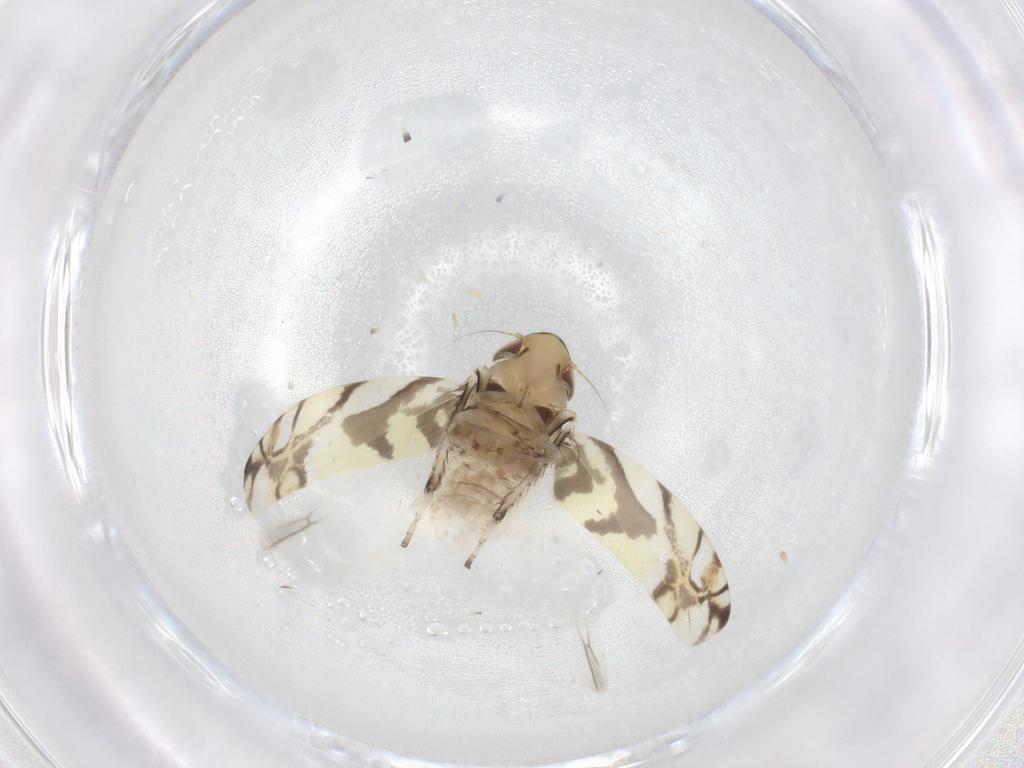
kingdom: Animalia
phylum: Arthropoda
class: Insecta
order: Hemiptera
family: Cicadellidae
